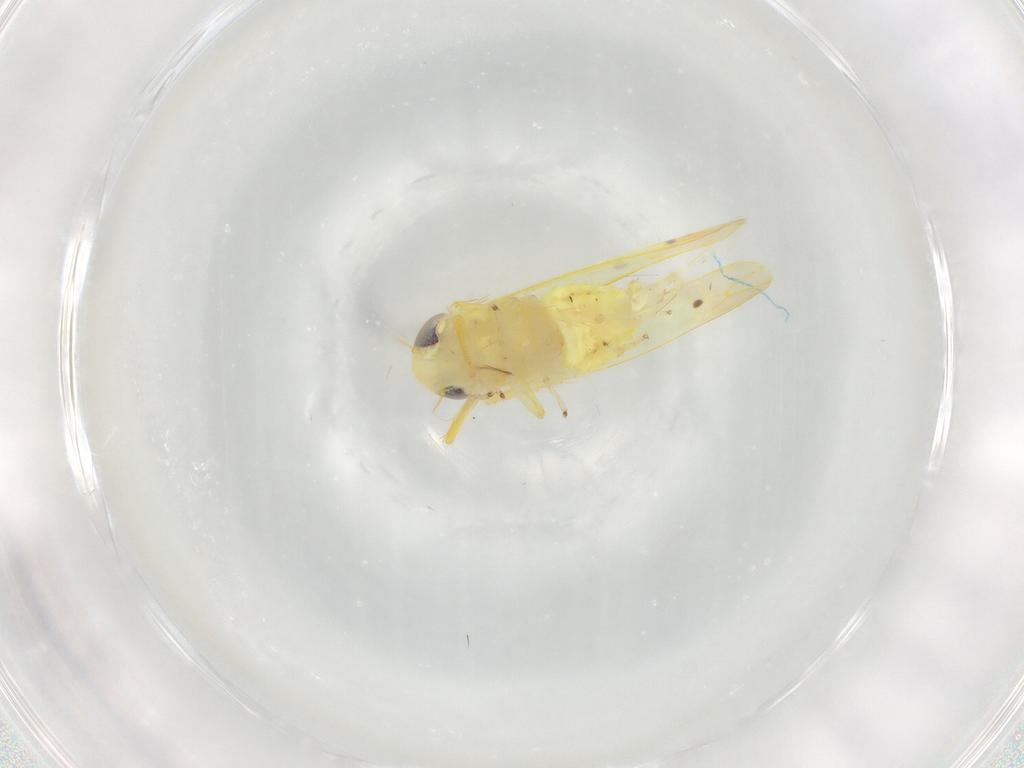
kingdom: Animalia
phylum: Arthropoda
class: Insecta
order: Hemiptera
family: Cicadellidae
